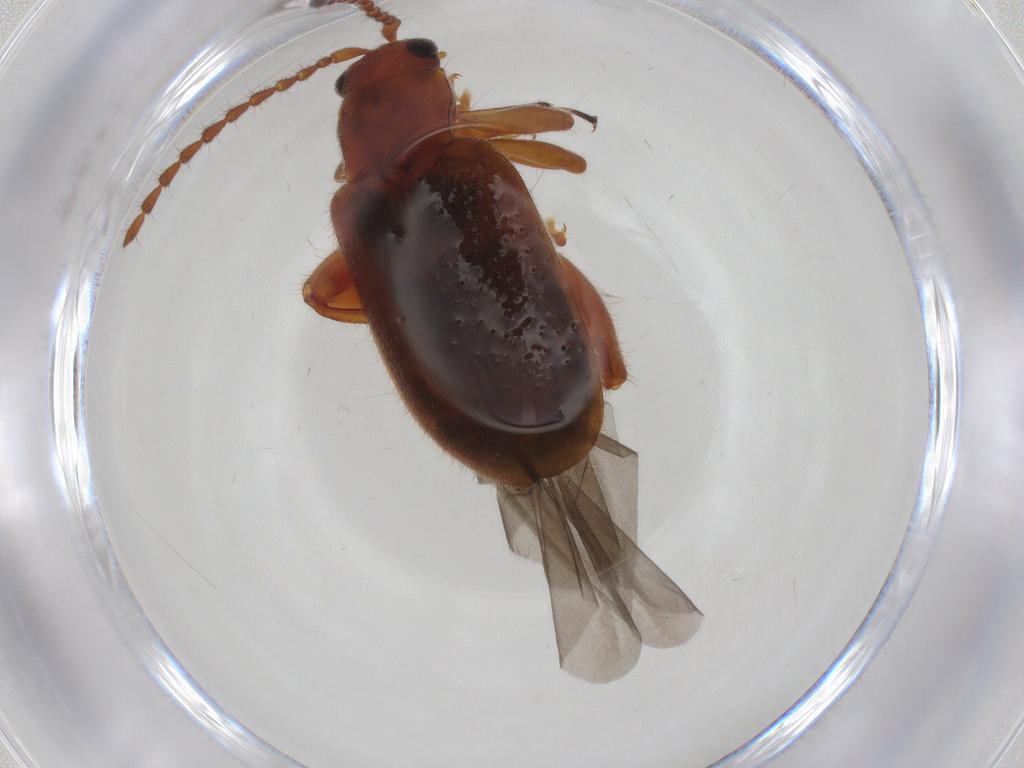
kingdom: Animalia
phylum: Arthropoda
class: Insecta
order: Coleoptera
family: Chrysomelidae
